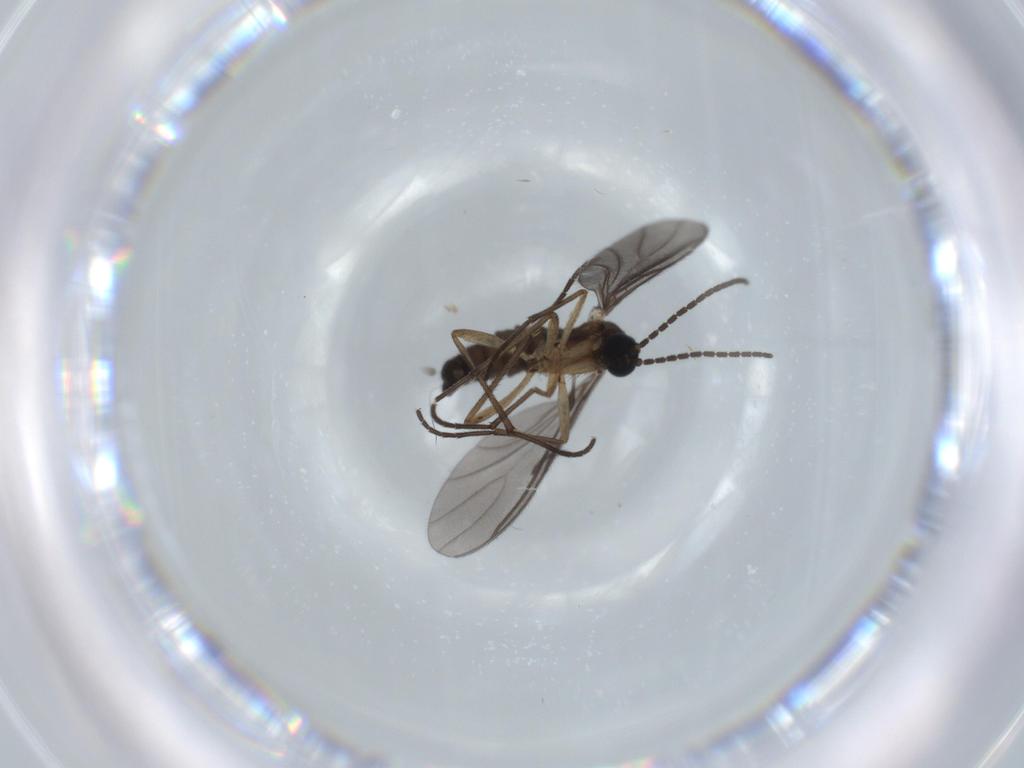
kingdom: Animalia
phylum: Arthropoda
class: Insecta
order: Diptera
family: Sciaridae
